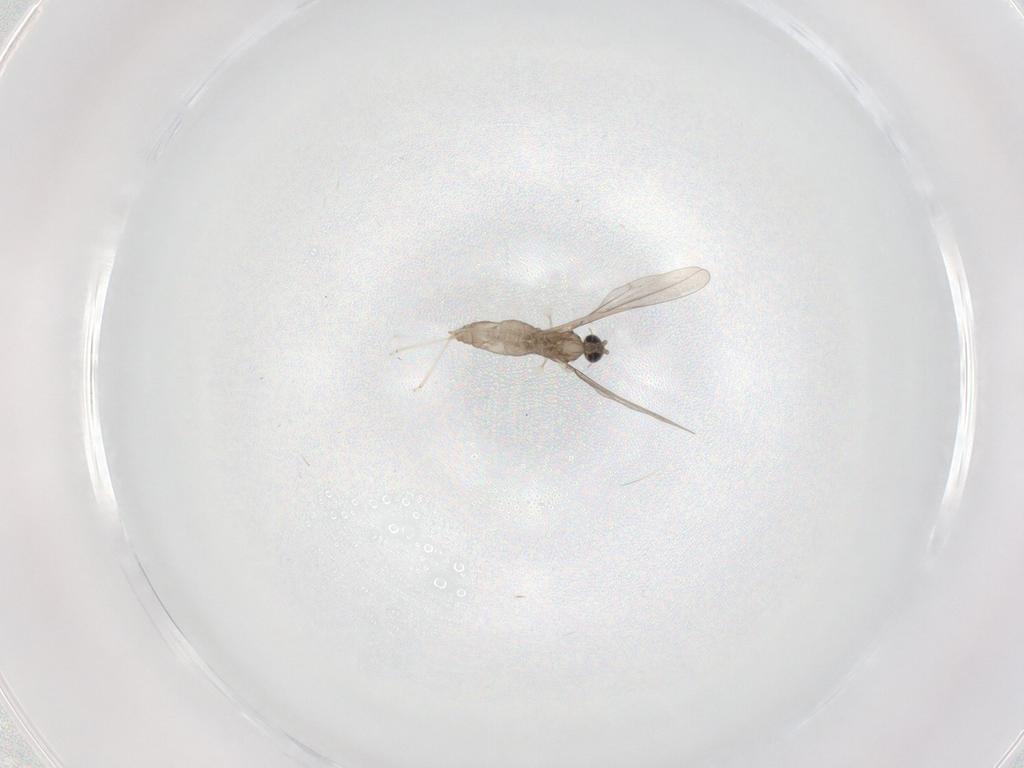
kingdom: Animalia
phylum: Arthropoda
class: Insecta
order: Diptera
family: Cecidomyiidae
